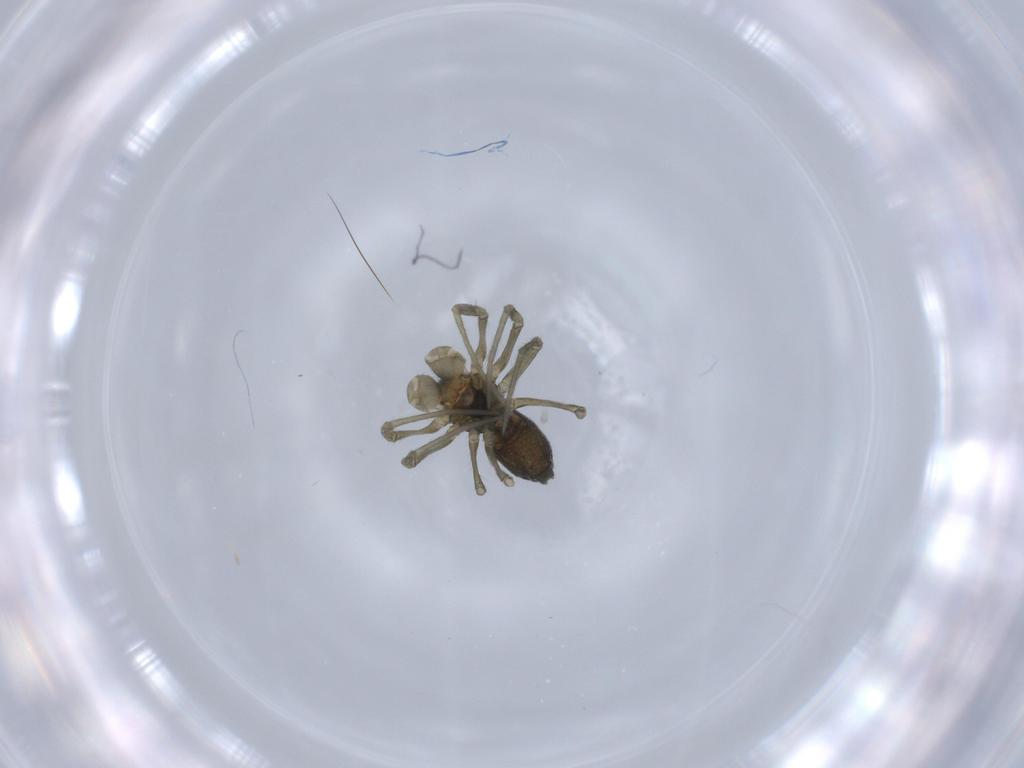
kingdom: Animalia
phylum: Arthropoda
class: Arachnida
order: Araneae
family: Linyphiidae
